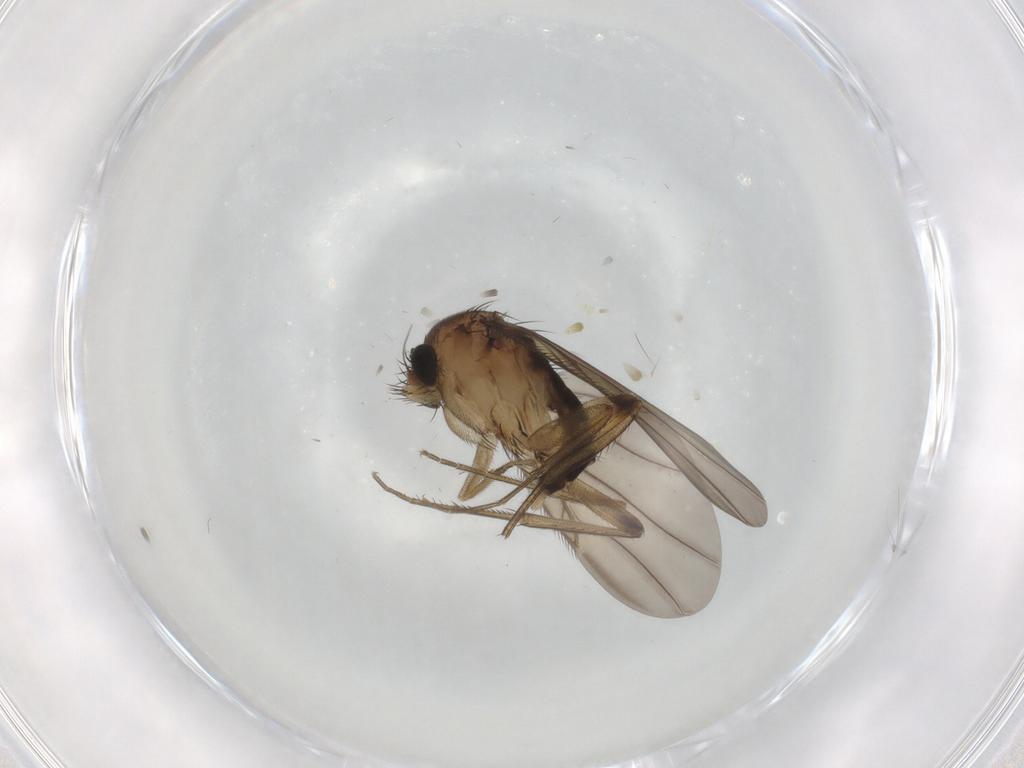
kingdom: Animalia
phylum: Arthropoda
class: Insecta
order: Diptera
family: Phoridae
